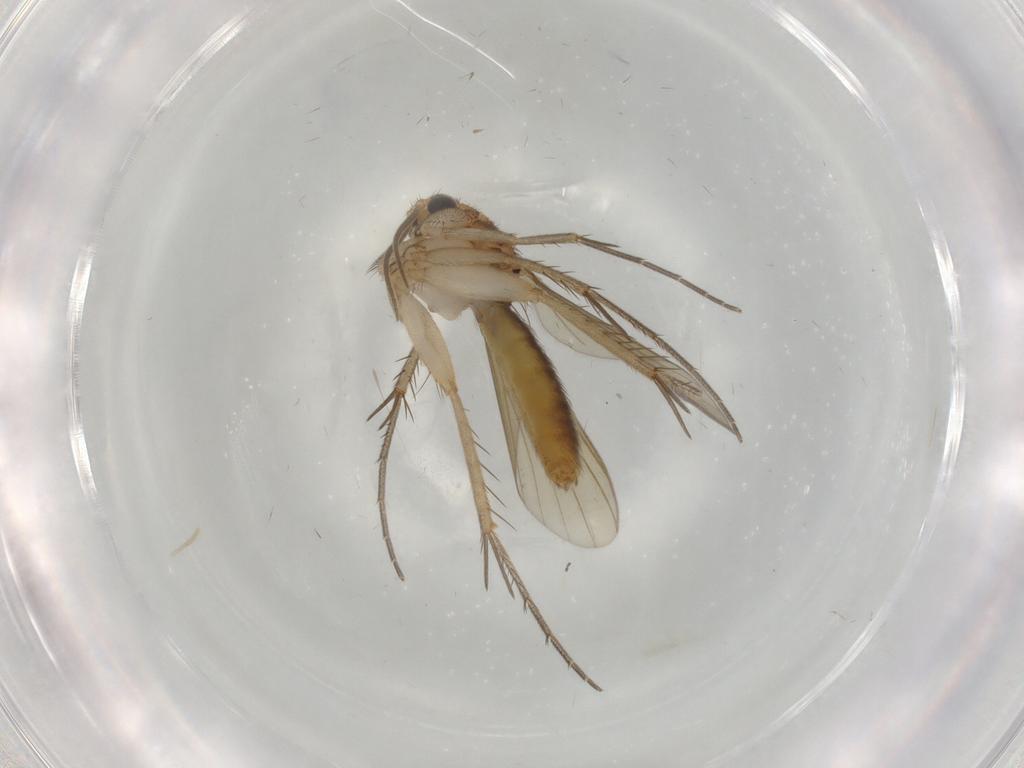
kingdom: Animalia
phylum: Arthropoda
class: Insecta
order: Diptera
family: Mycetophilidae
